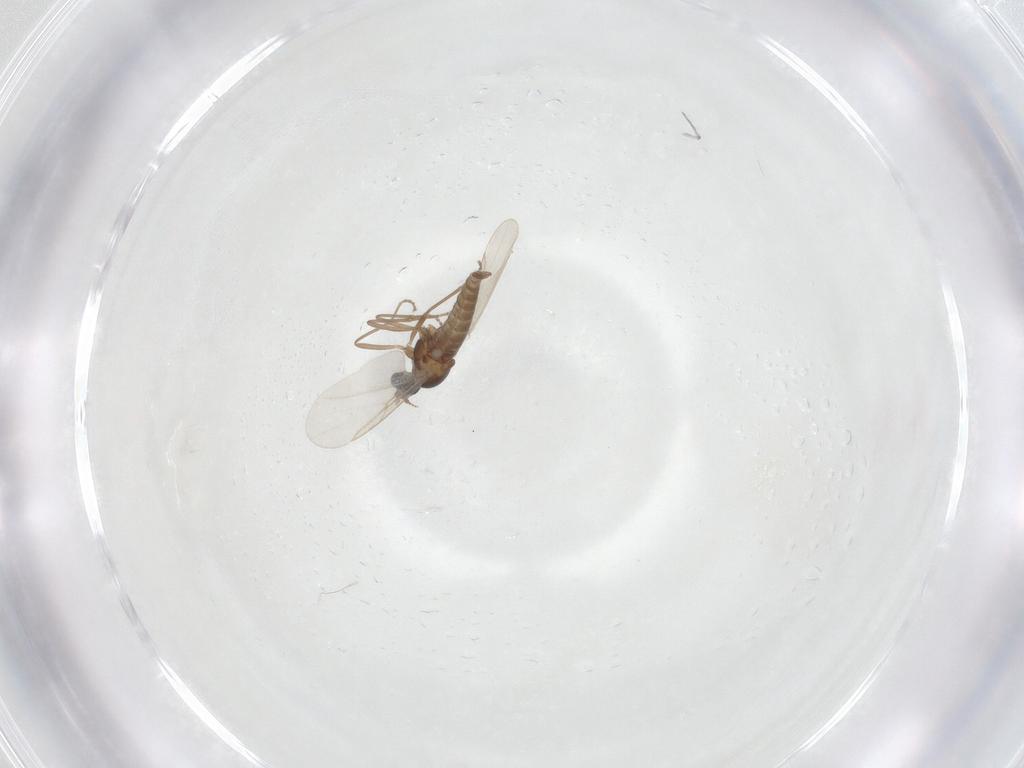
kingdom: Animalia
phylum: Arthropoda
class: Insecta
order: Diptera
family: Cecidomyiidae
